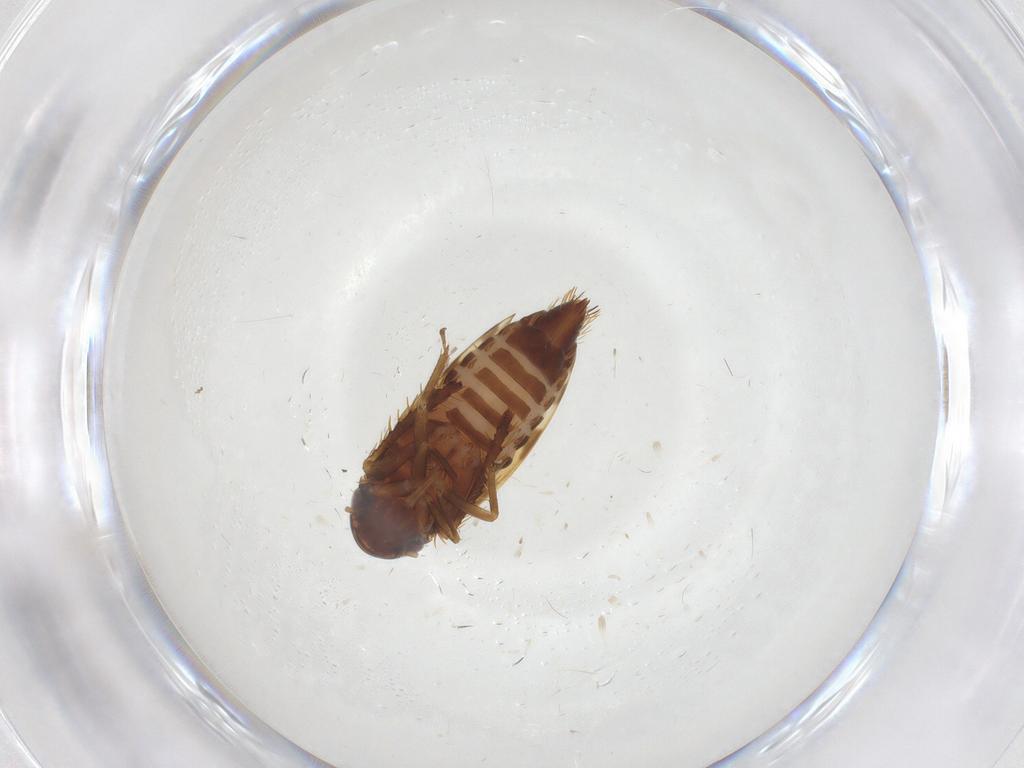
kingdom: Animalia
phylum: Arthropoda
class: Insecta
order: Hemiptera
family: Cicadellidae
